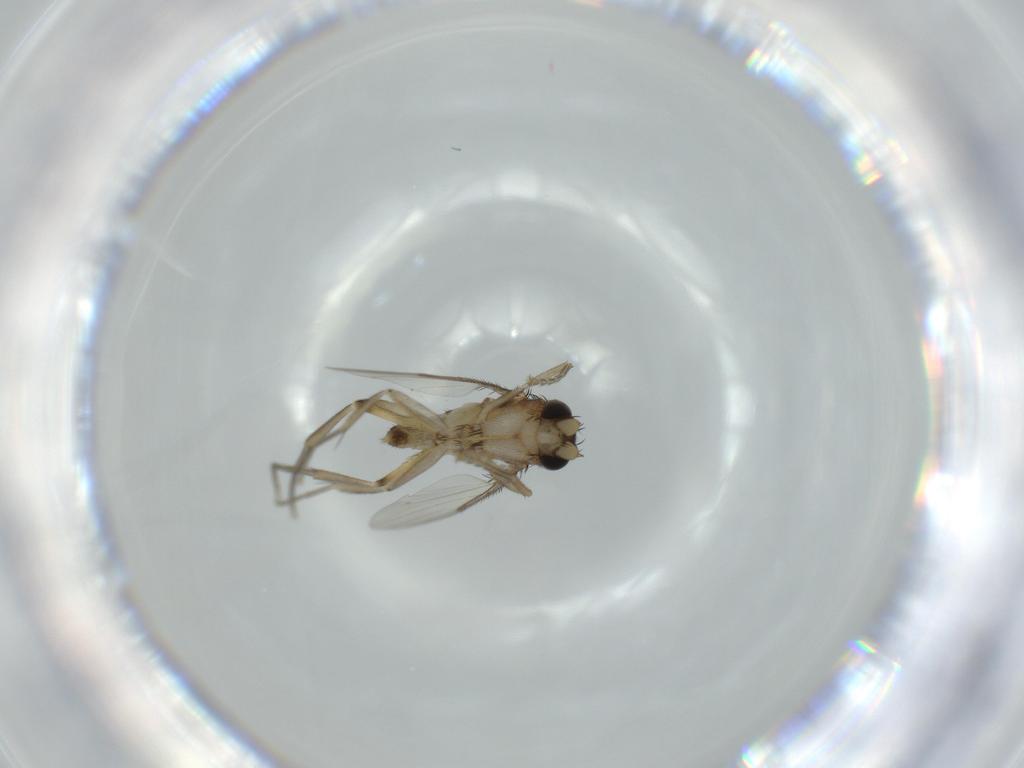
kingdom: Animalia
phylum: Arthropoda
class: Insecta
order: Diptera
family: Phoridae
